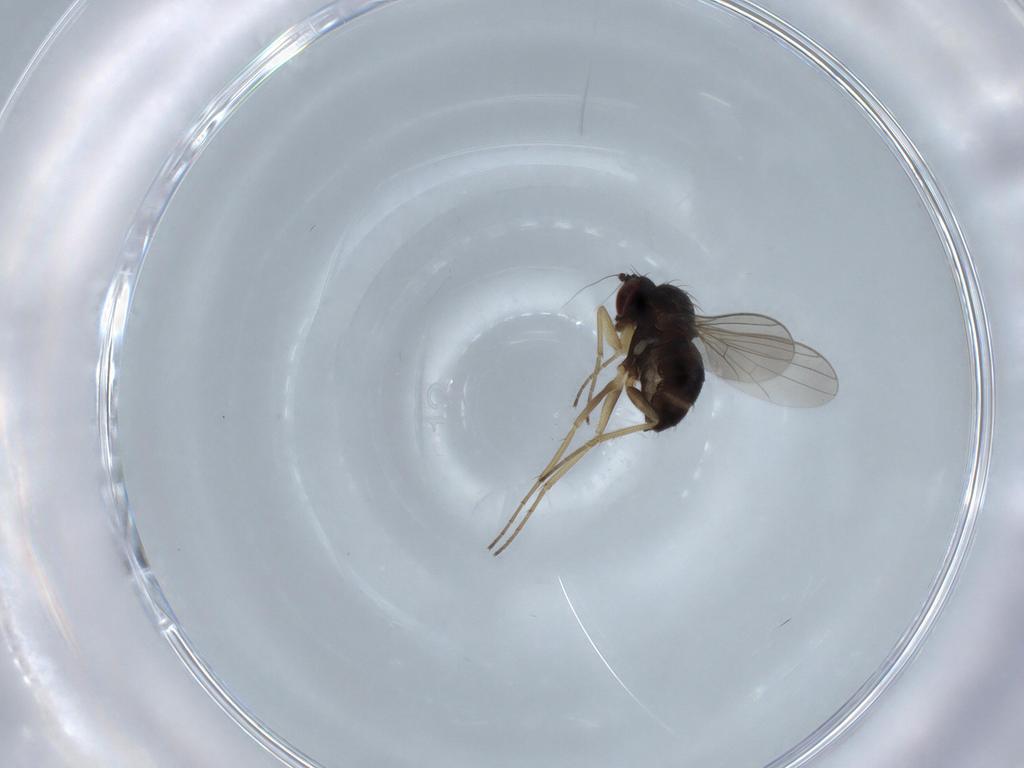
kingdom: Animalia
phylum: Arthropoda
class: Insecta
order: Diptera
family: Dolichopodidae
